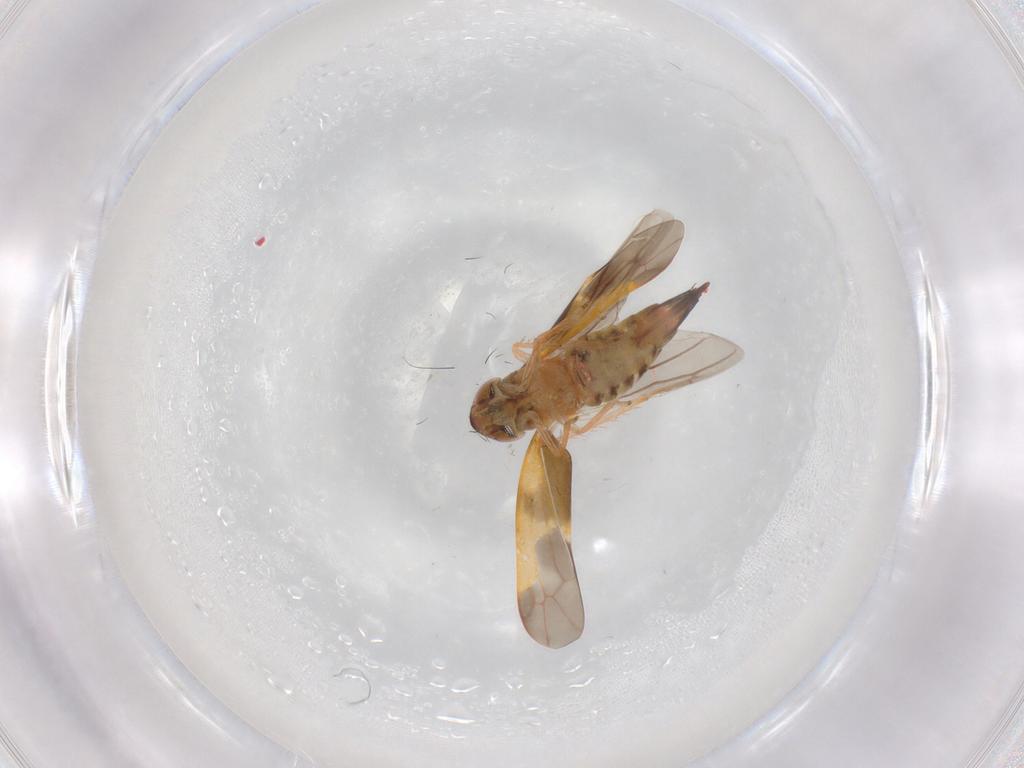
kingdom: Animalia
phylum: Arthropoda
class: Insecta
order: Hemiptera
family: Cicadellidae
